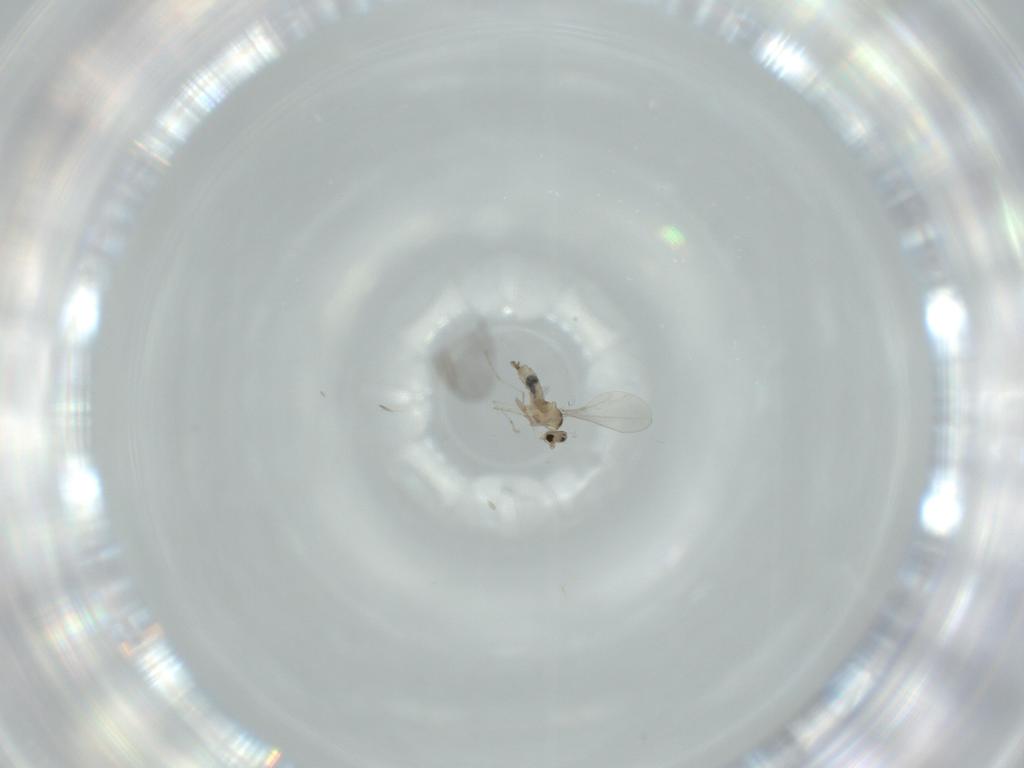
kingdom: Animalia
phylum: Arthropoda
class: Insecta
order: Diptera
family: Cecidomyiidae
